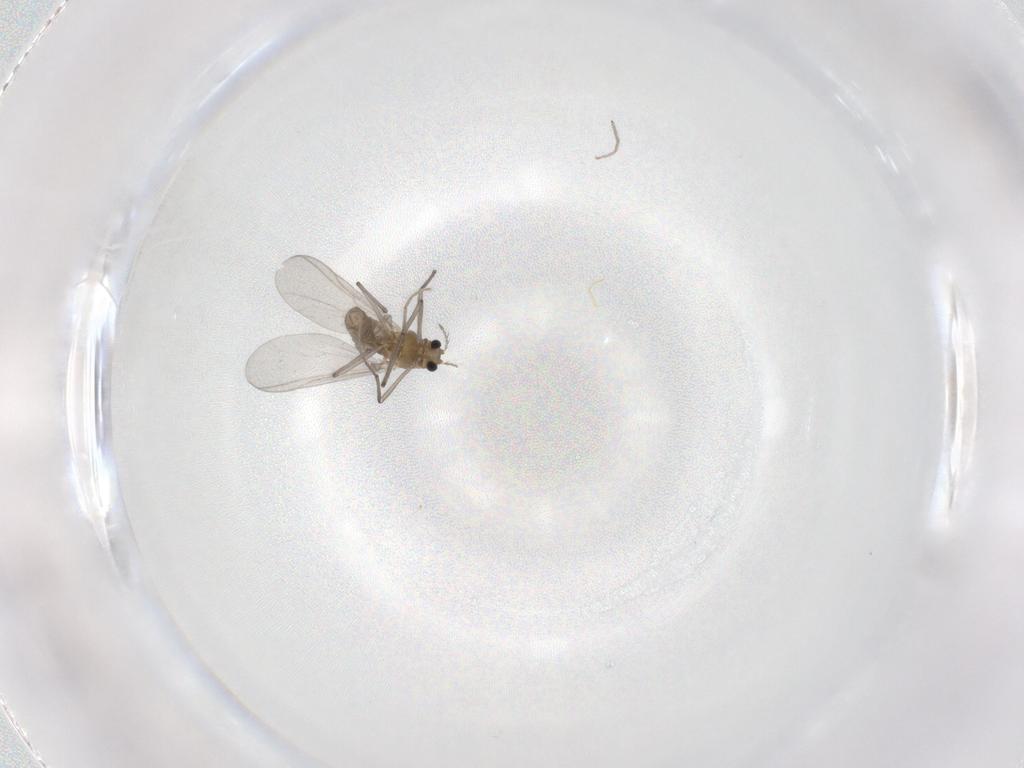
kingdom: Animalia
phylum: Arthropoda
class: Insecta
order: Diptera
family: Chironomidae
